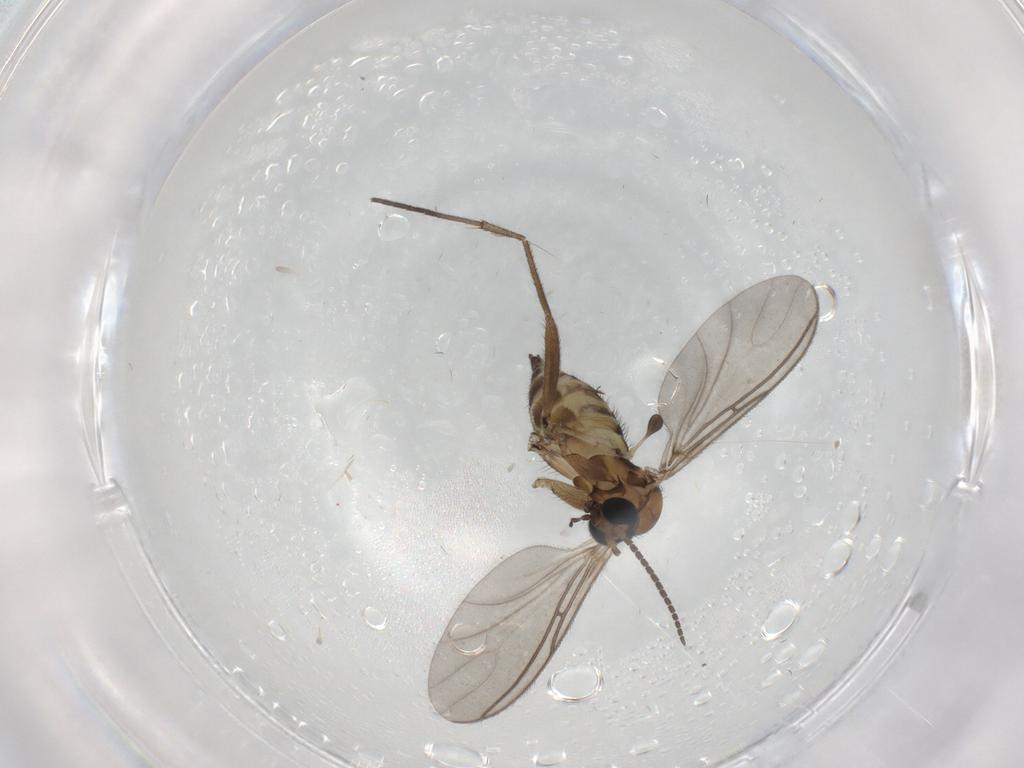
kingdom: Animalia
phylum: Arthropoda
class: Insecta
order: Diptera
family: Sciaridae
